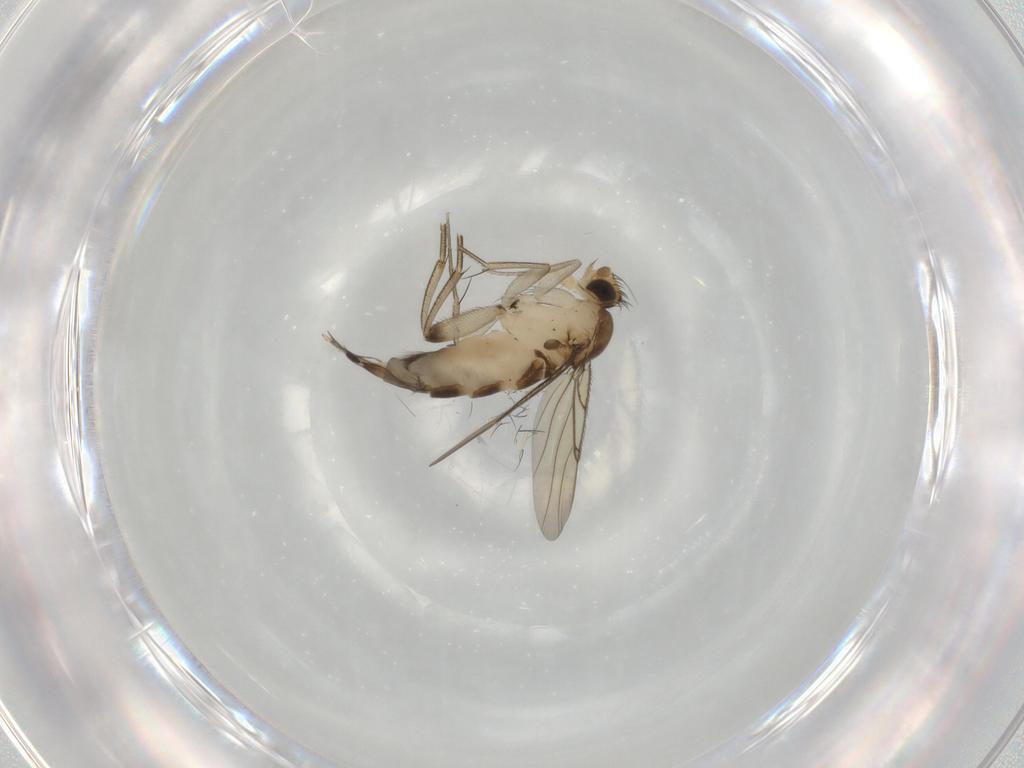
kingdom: Animalia
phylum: Arthropoda
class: Insecta
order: Diptera
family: Phoridae
